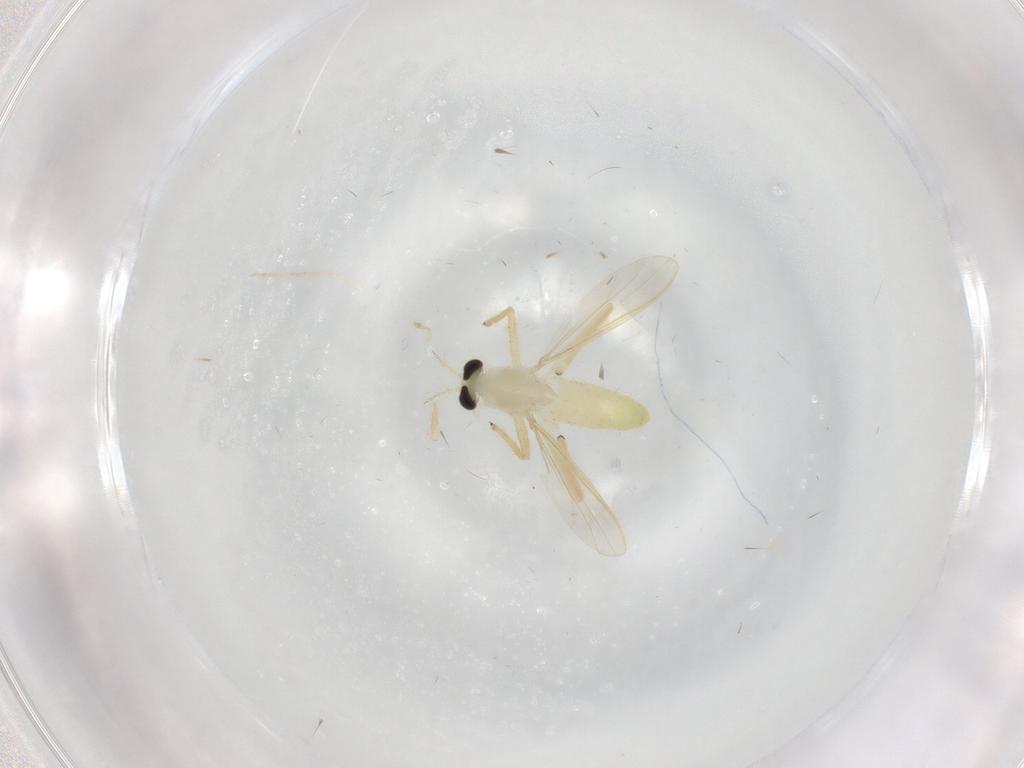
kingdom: Animalia
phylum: Arthropoda
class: Insecta
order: Diptera
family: Chironomidae
